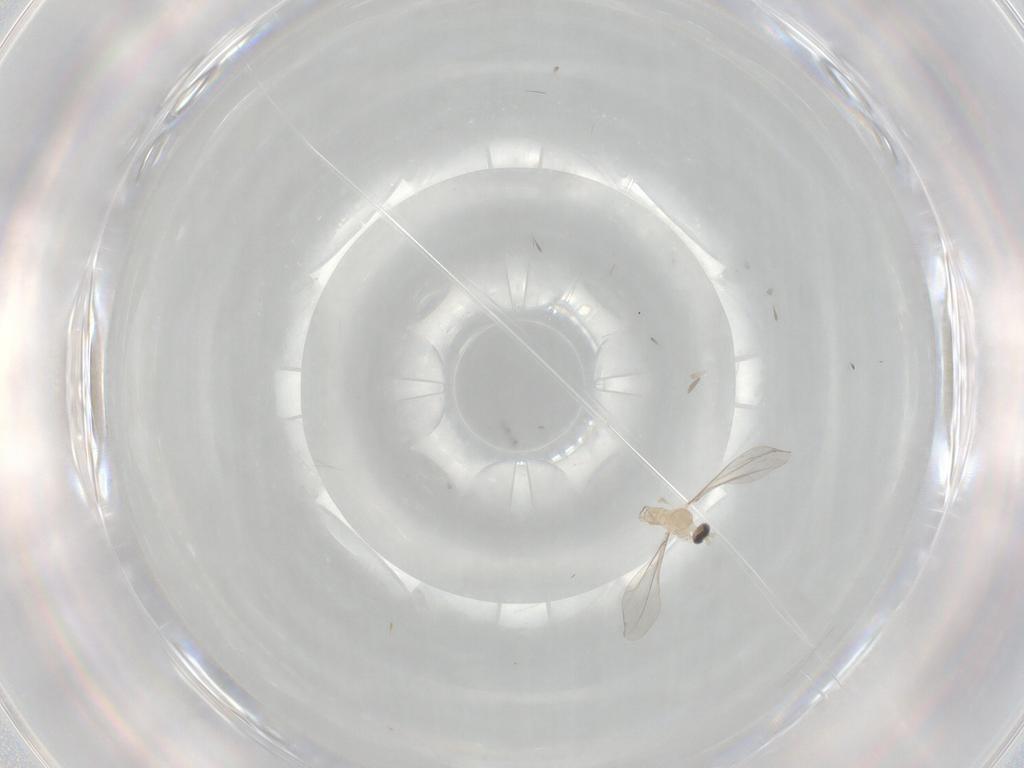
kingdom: Animalia
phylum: Arthropoda
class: Insecta
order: Diptera
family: Cecidomyiidae
